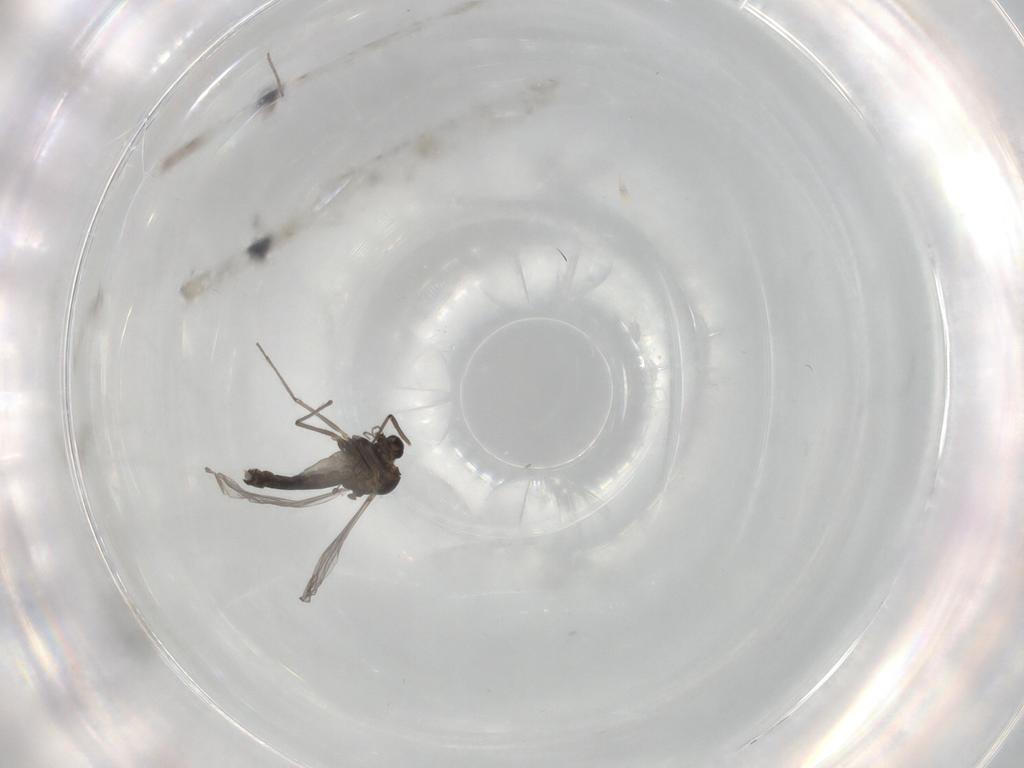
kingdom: Animalia
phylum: Arthropoda
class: Insecta
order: Diptera
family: Chironomidae
